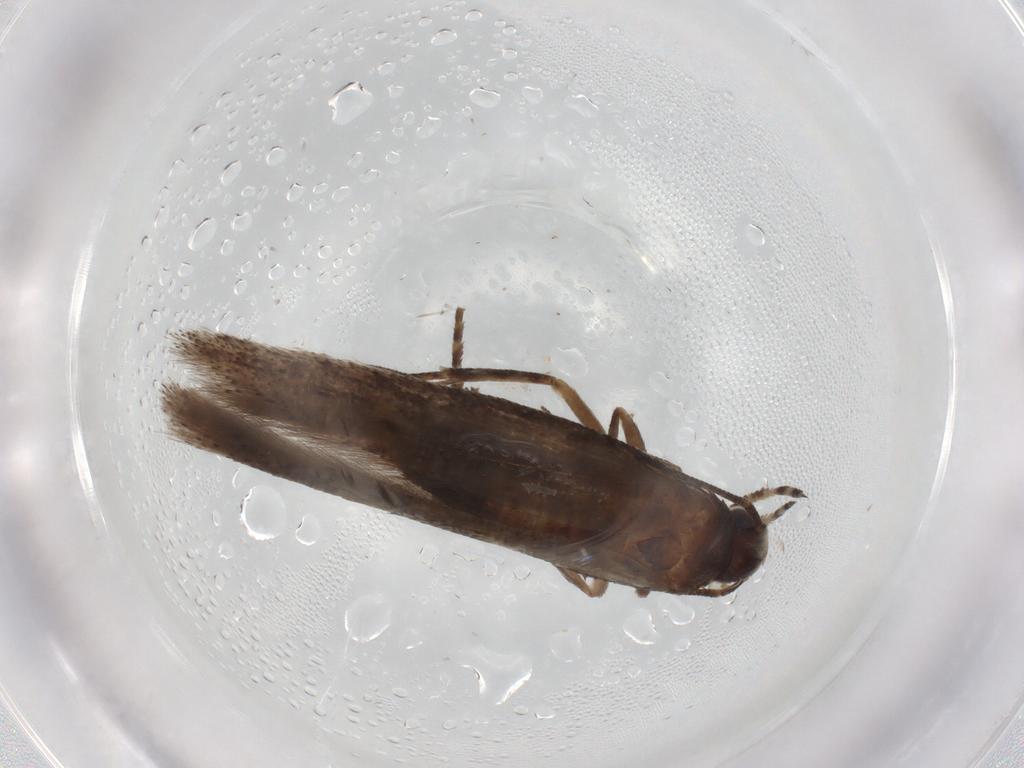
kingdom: Animalia
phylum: Arthropoda
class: Insecta
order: Lepidoptera
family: Gelechiidae
